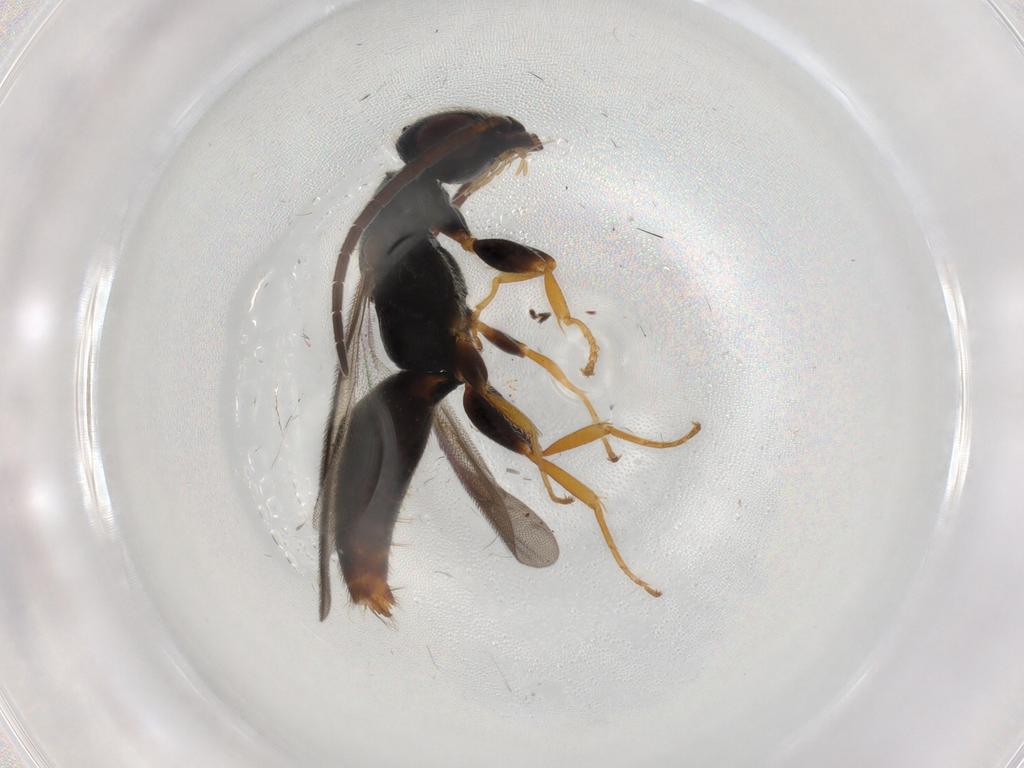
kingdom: Animalia
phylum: Arthropoda
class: Insecta
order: Hymenoptera
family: Bethylidae
